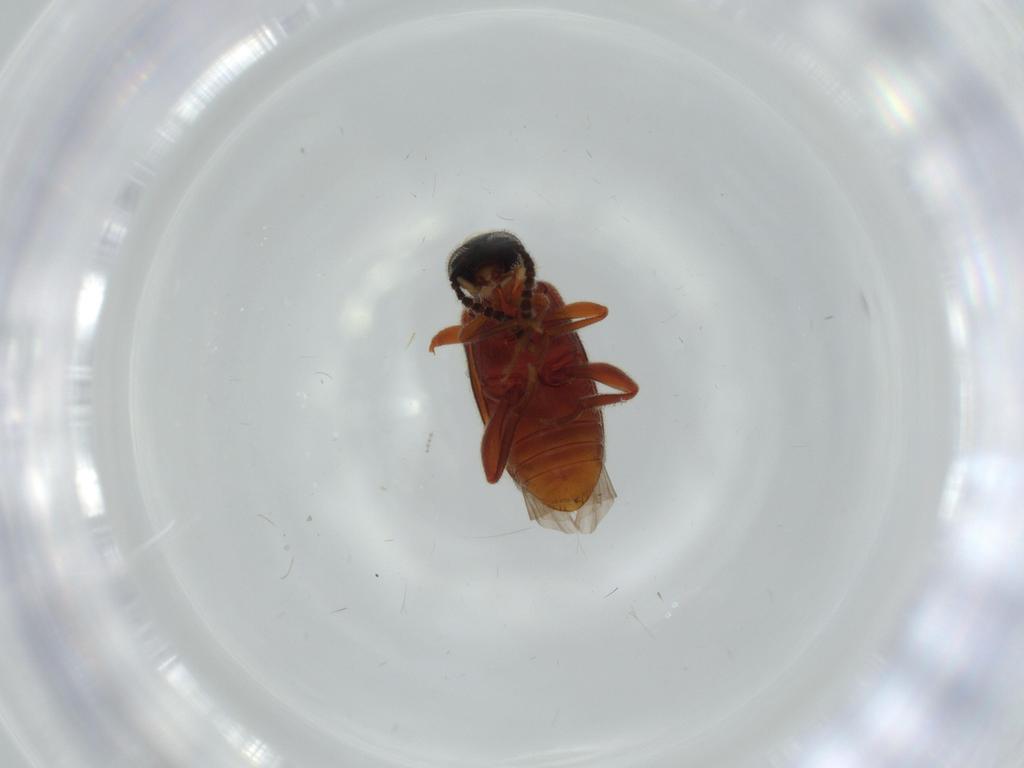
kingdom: Animalia
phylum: Arthropoda
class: Insecta
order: Coleoptera
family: Aderidae
